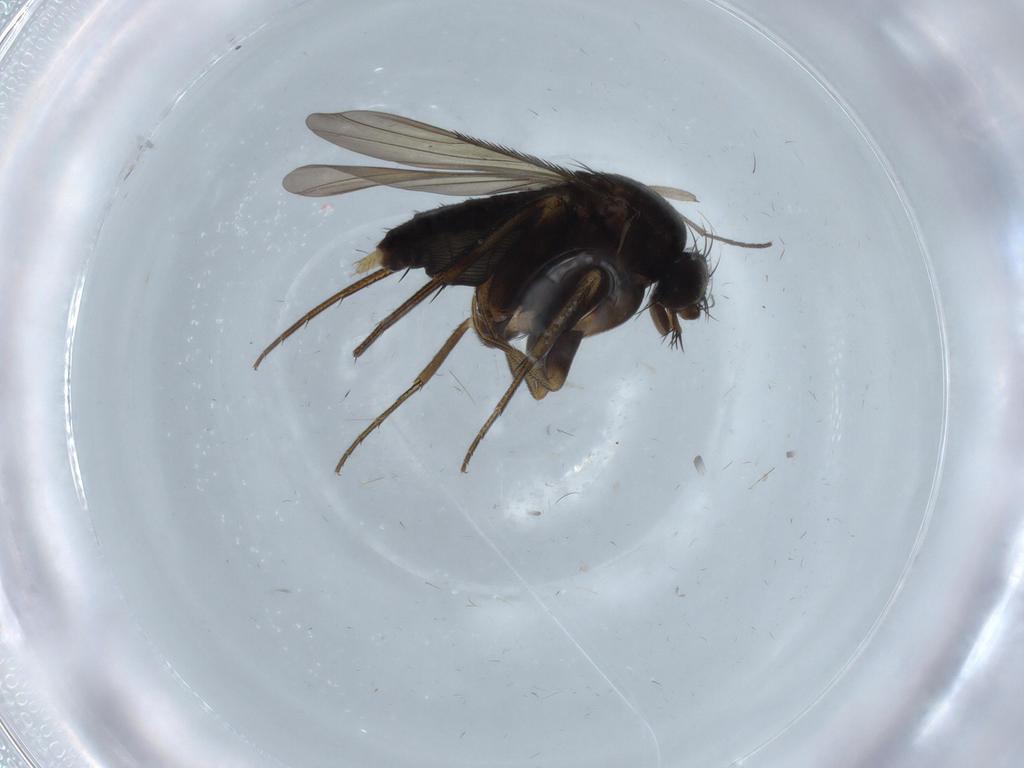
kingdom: Animalia
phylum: Arthropoda
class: Insecta
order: Diptera
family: Phoridae
